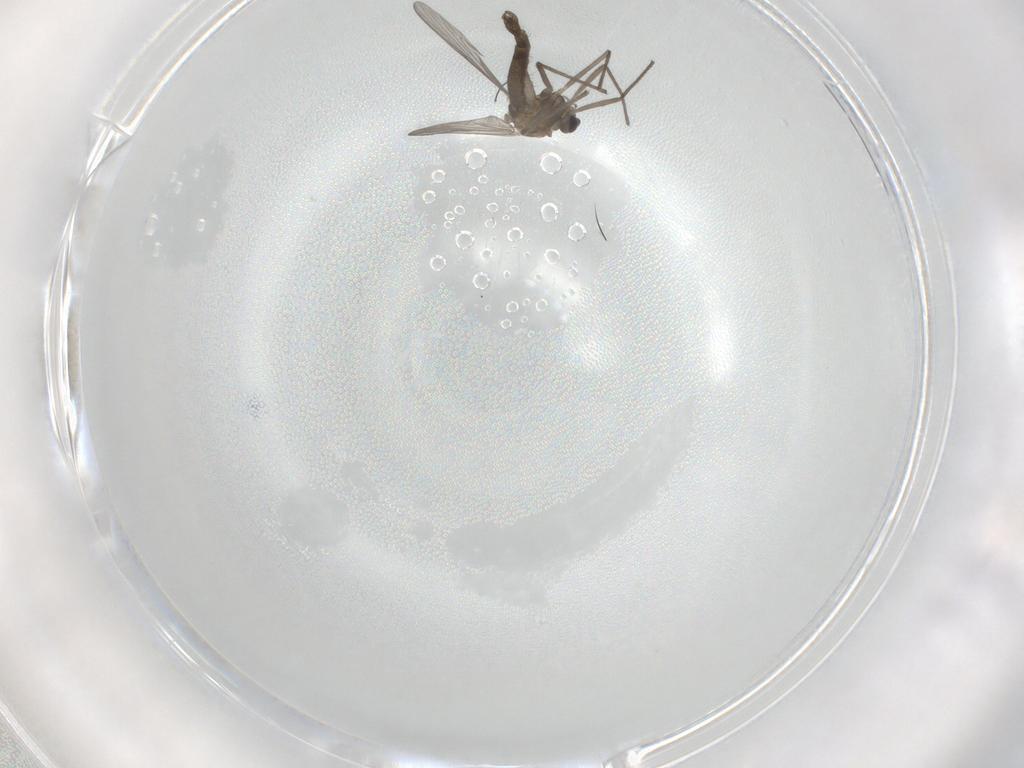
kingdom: Animalia
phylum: Arthropoda
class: Insecta
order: Diptera
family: Chironomidae
